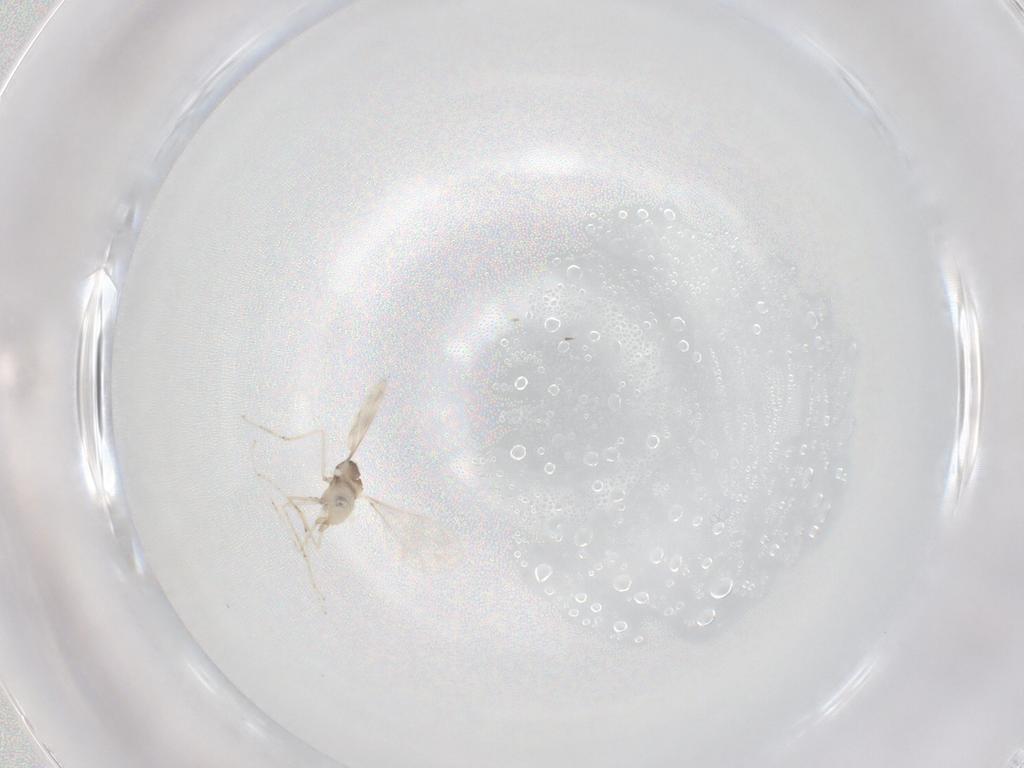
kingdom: Animalia
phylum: Arthropoda
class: Insecta
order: Diptera
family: Cecidomyiidae
